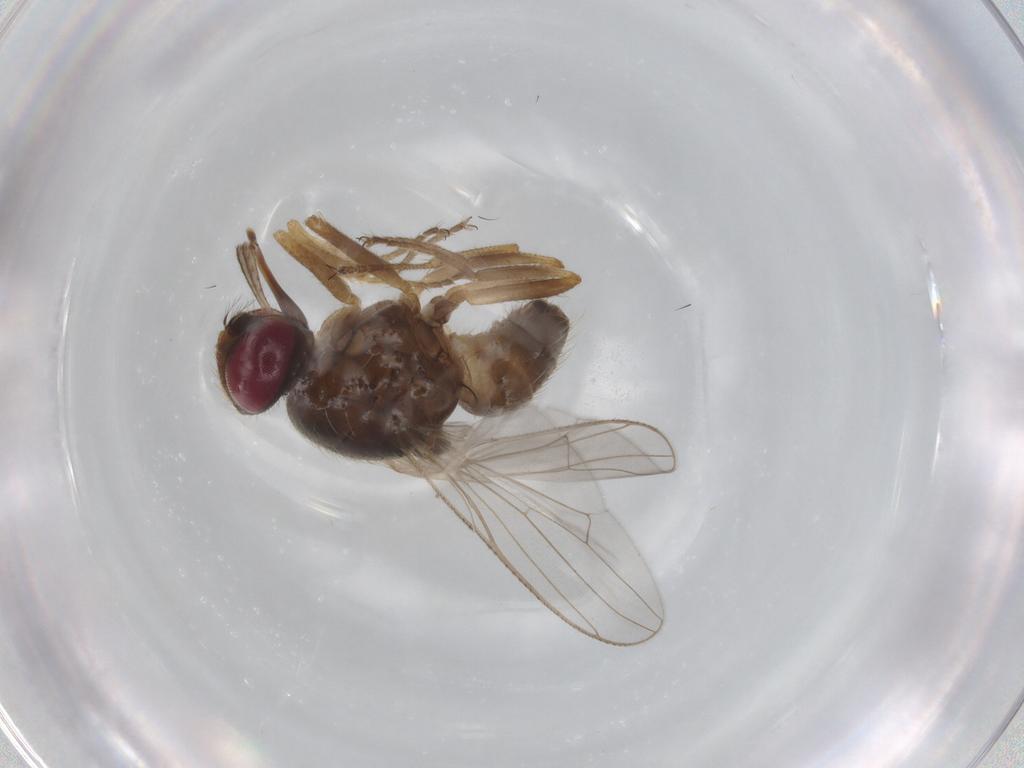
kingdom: Animalia
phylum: Arthropoda
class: Insecta
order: Diptera
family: Muscidae
